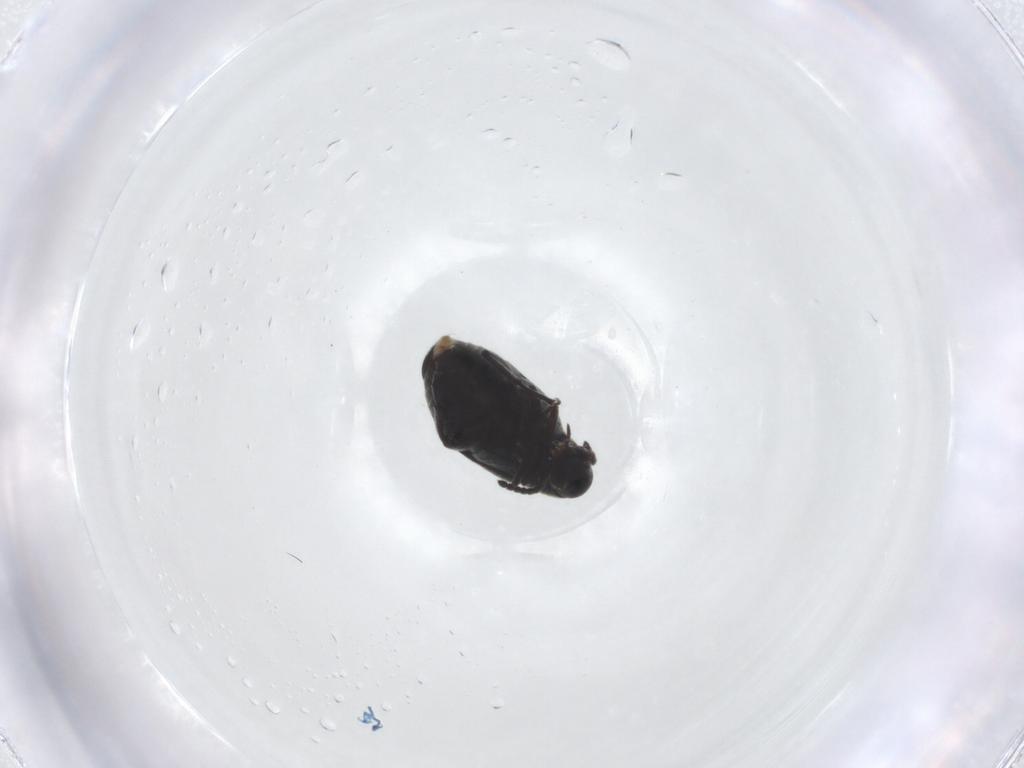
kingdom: Animalia
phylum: Arthropoda
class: Insecta
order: Coleoptera
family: Chrysomelidae
